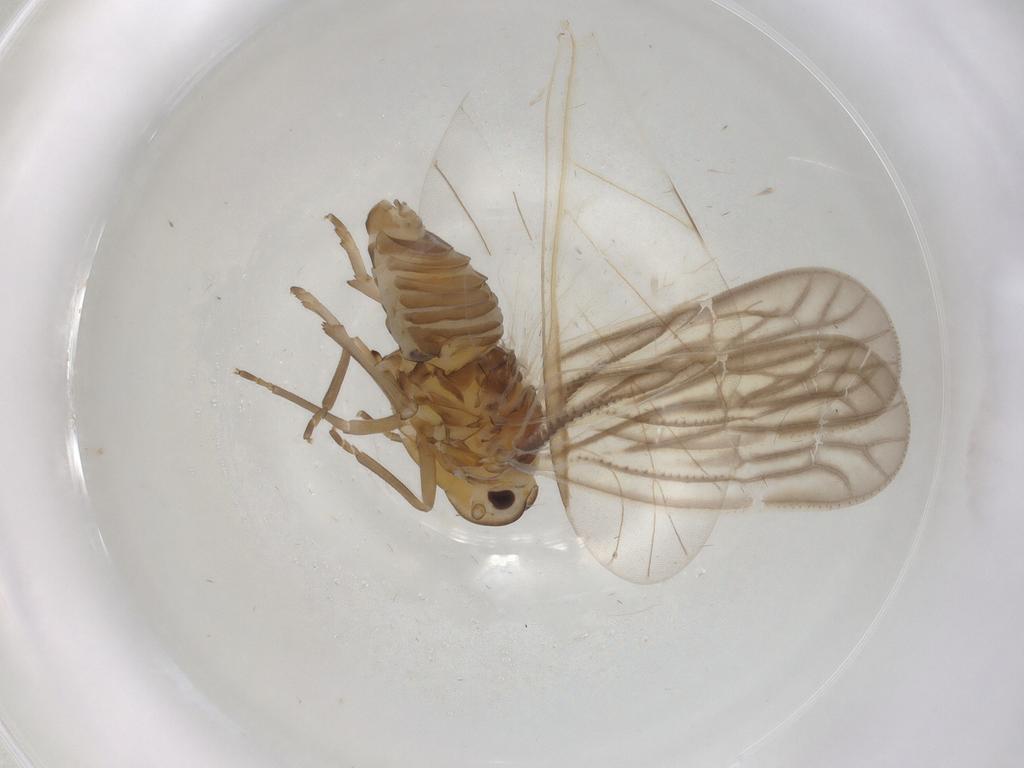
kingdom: Animalia
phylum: Arthropoda
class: Insecta
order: Hemiptera
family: Meenoplidae
